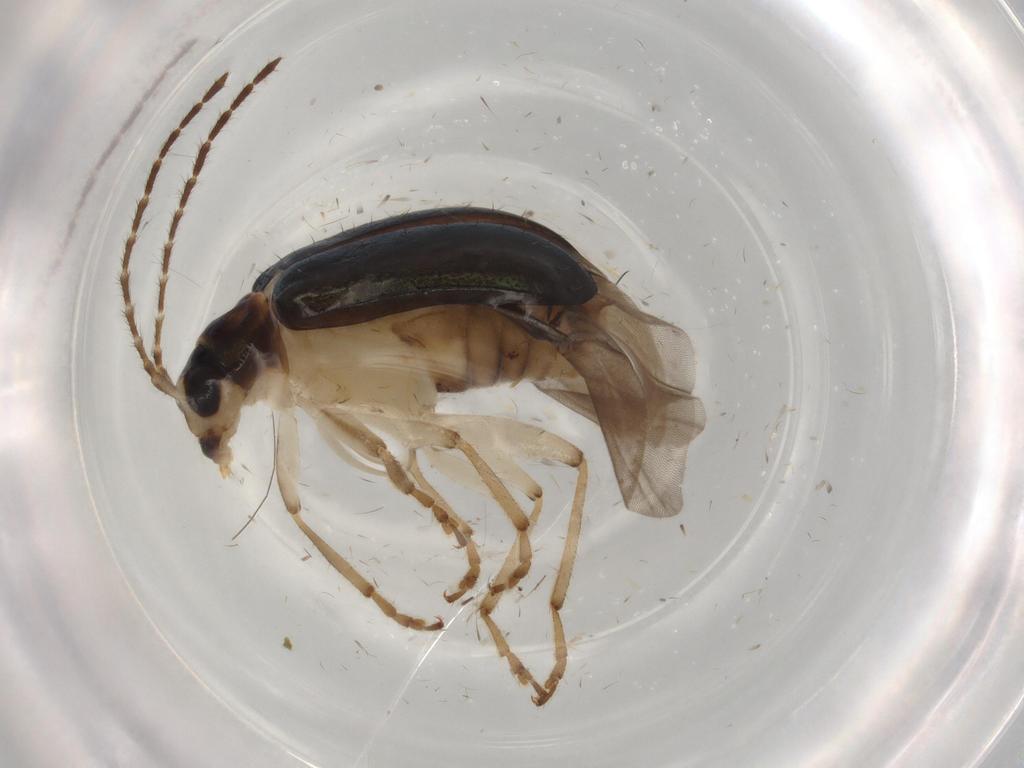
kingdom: Animalia
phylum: Arthropoda
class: Insecta
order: Coleoptera
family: Chrysomelidae
